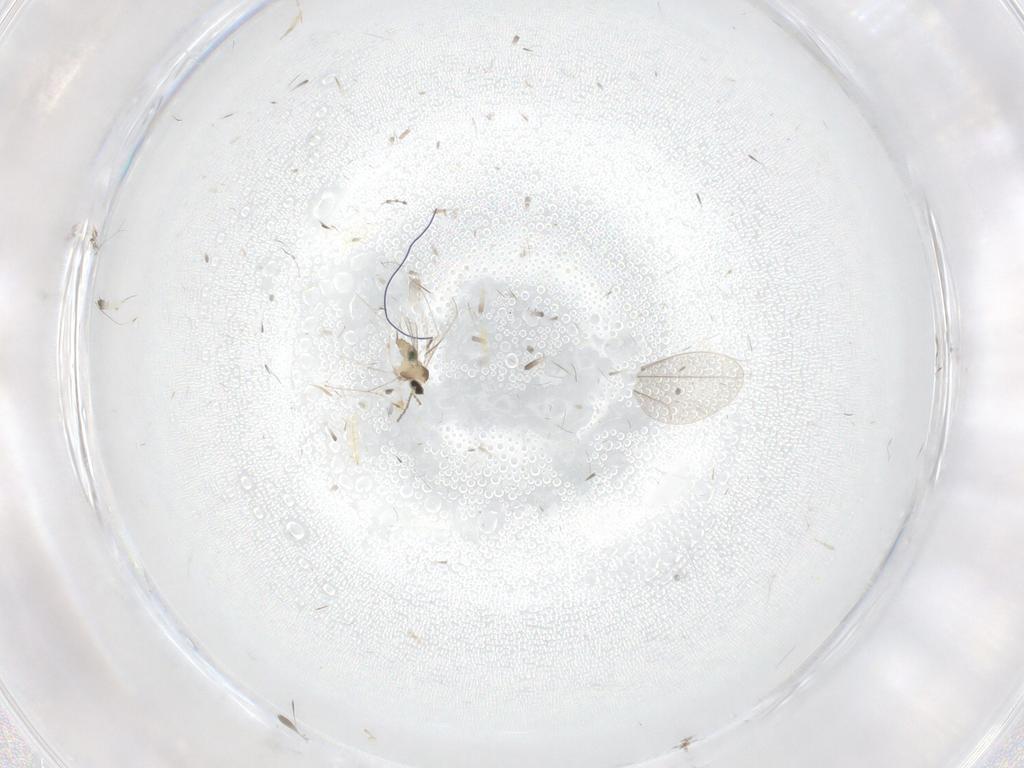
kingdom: Animalia
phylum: Arthropoda
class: Insecta
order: Diptera
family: Cecidomyiidae
